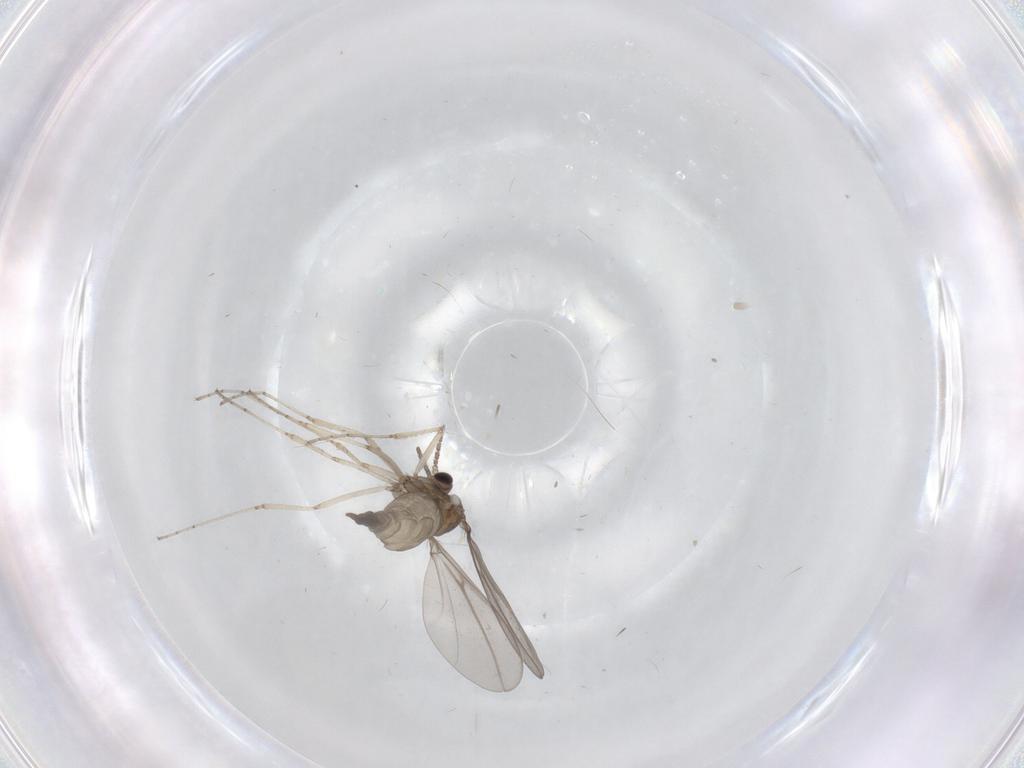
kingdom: Animalia
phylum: Arthropoda
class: Insecta
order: Diptera
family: Cecidomyiidae
